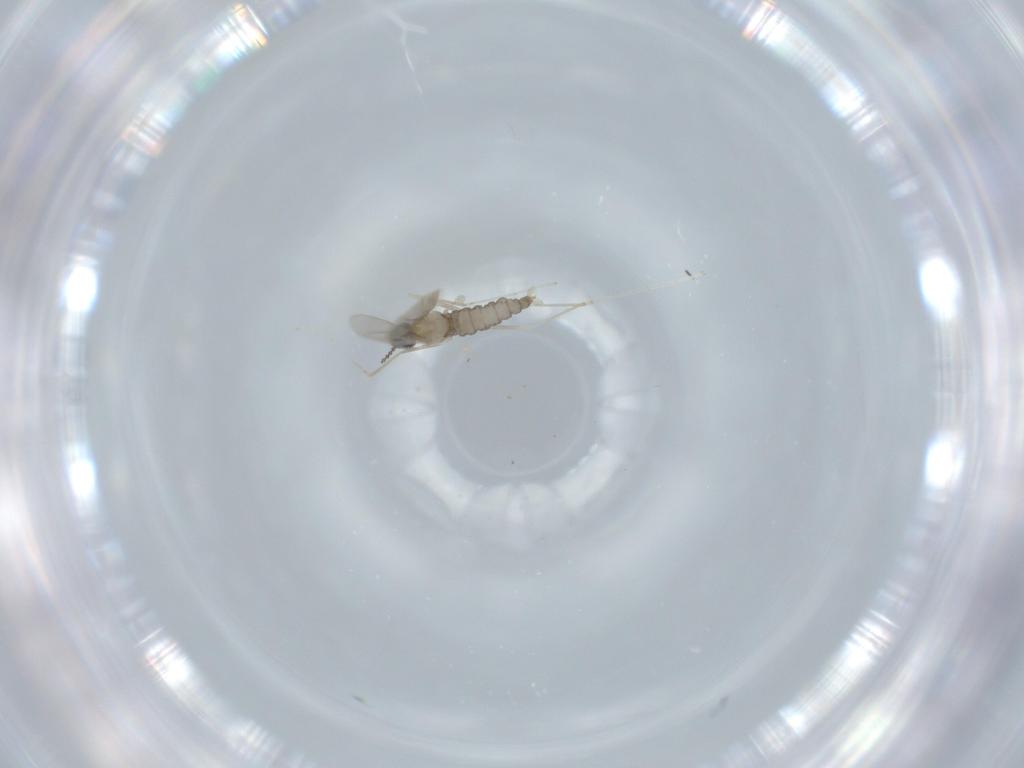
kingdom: Animalia
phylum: Arthropoda
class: Insecta
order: Diptera
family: Cecidomyiidae
